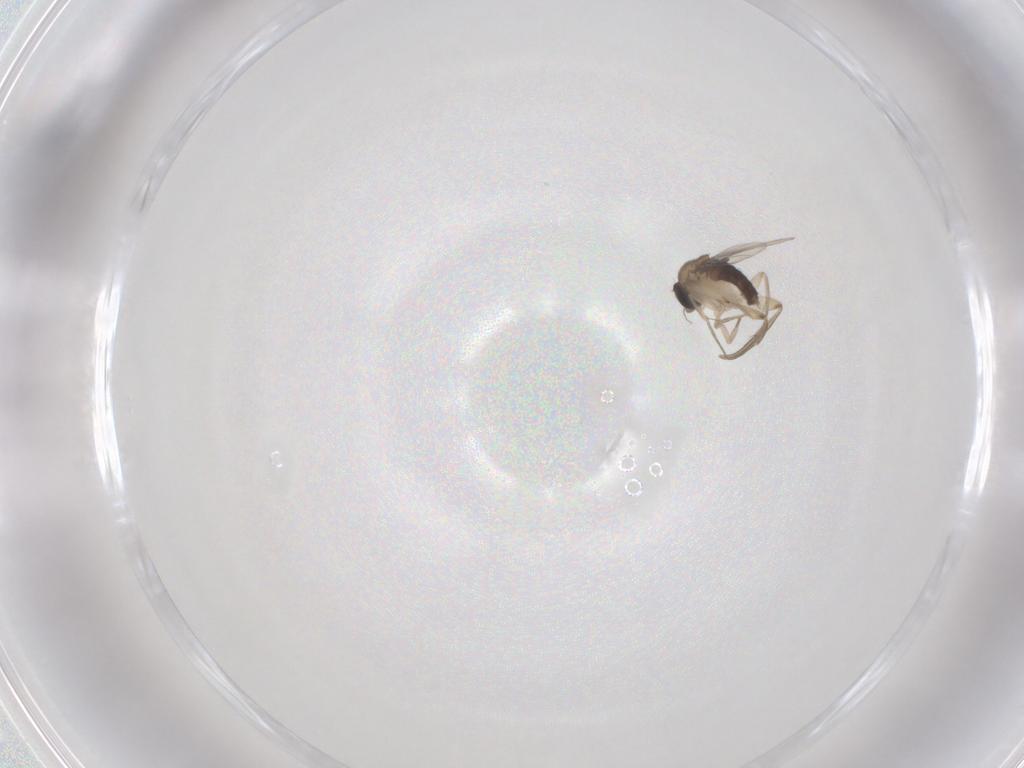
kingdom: Animalia
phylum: Arthropoda
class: Insecta
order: Diptera
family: Phoridae
